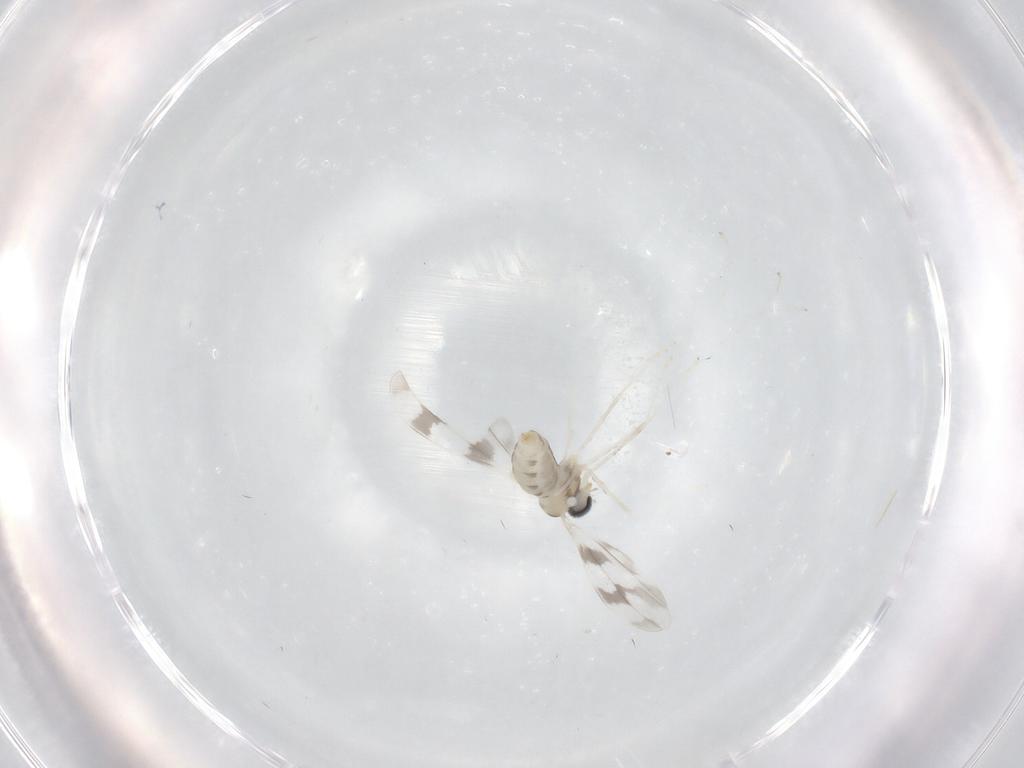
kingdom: Animalia
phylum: Arthropoda
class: Insecta
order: Diptera
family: Cecidomyiidae
